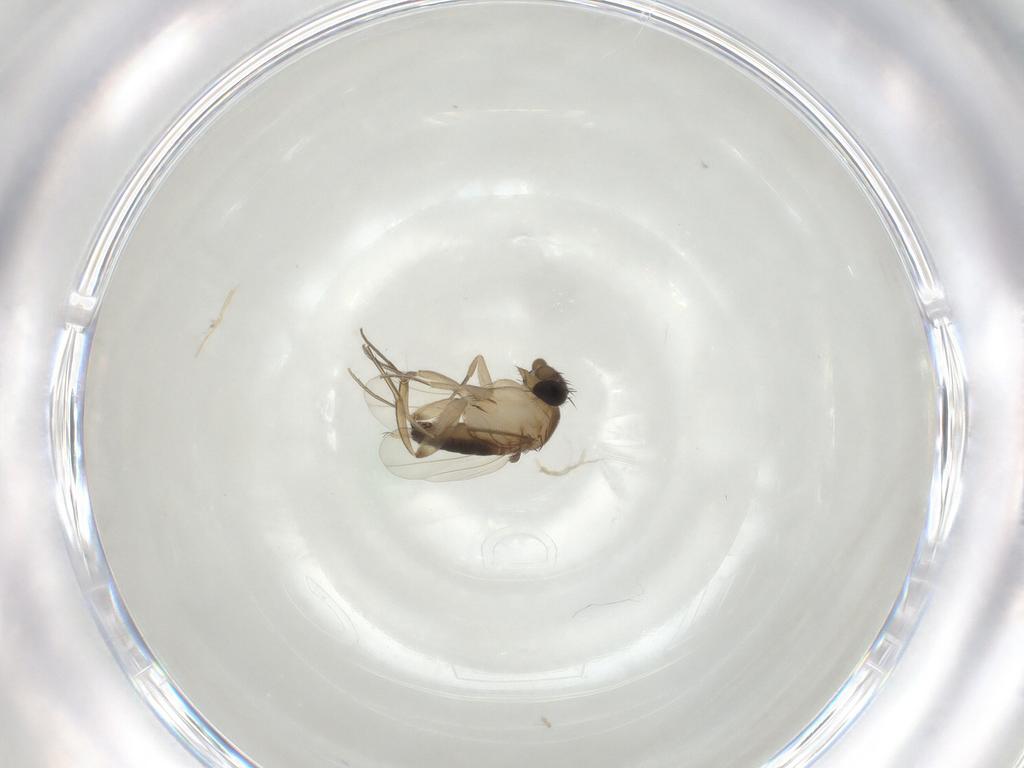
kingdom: Animalia
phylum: Arthropoda
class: Insecta
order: Diptera
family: Phoridae
